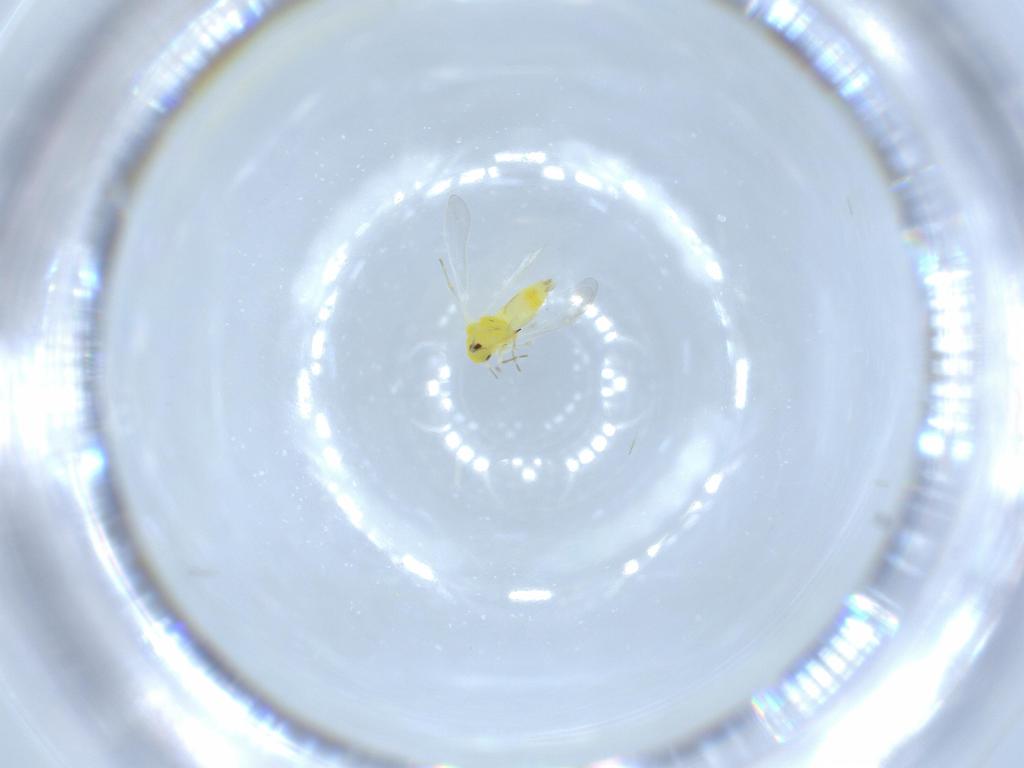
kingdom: Animalia
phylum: Arthropoda
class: Insecta
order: Hemiptera
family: Aleyrodidae
